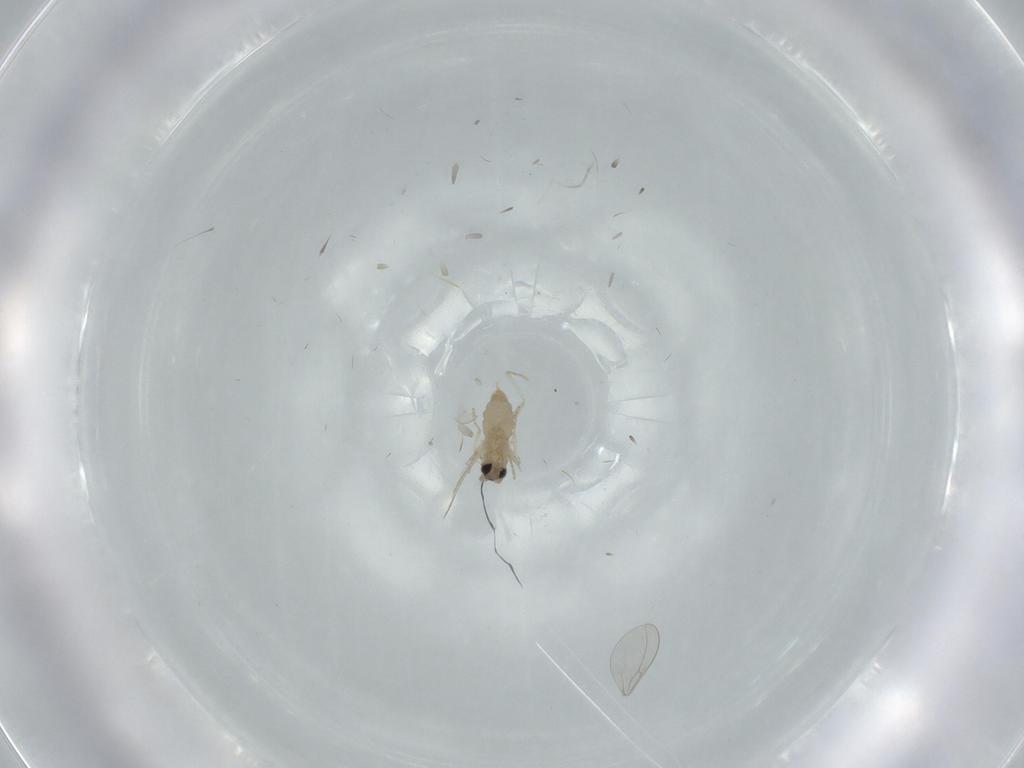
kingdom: Animalia
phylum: Arthropoda
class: Insecta
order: Diptera
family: Cecidomyiidae
